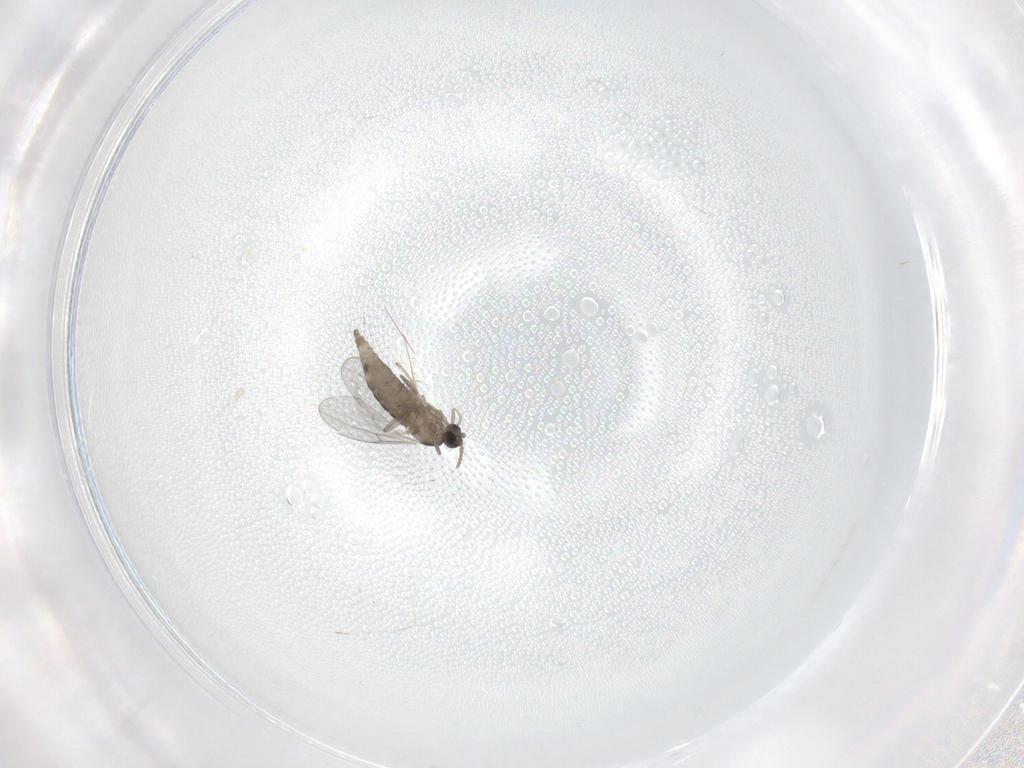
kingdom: Animalia
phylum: Arthropoda
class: Insecta
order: Diptera
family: Cecidomyiidae
